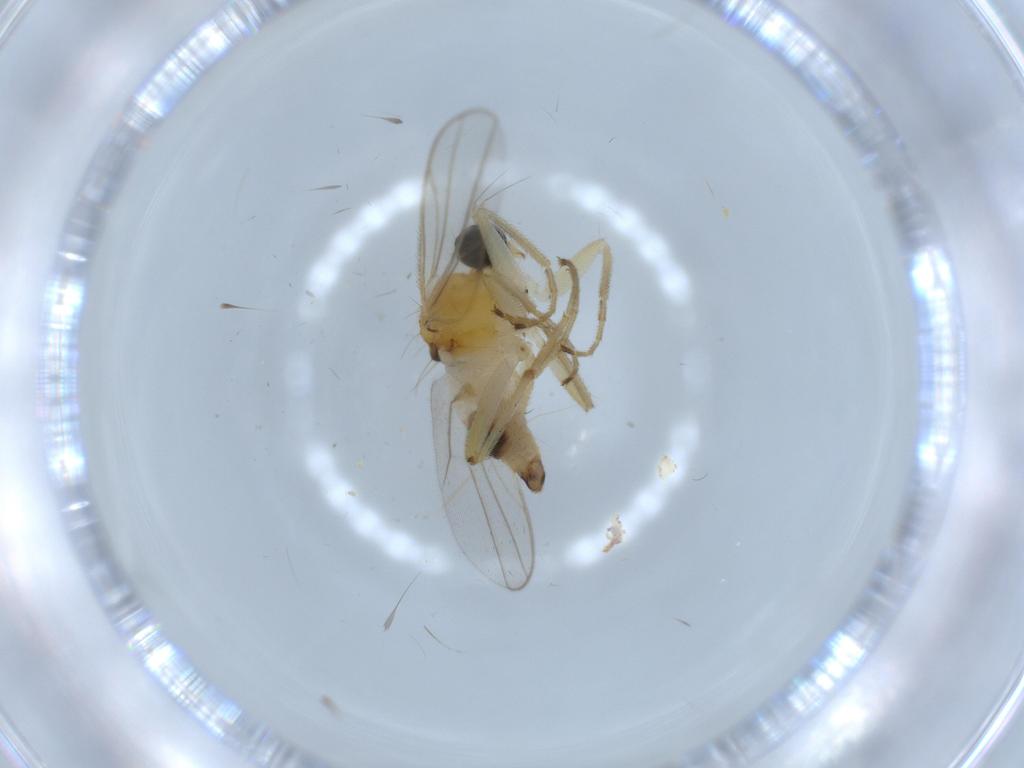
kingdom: Animalia
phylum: Arthropoda
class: Insecta
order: Diptera
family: Hybotidae
